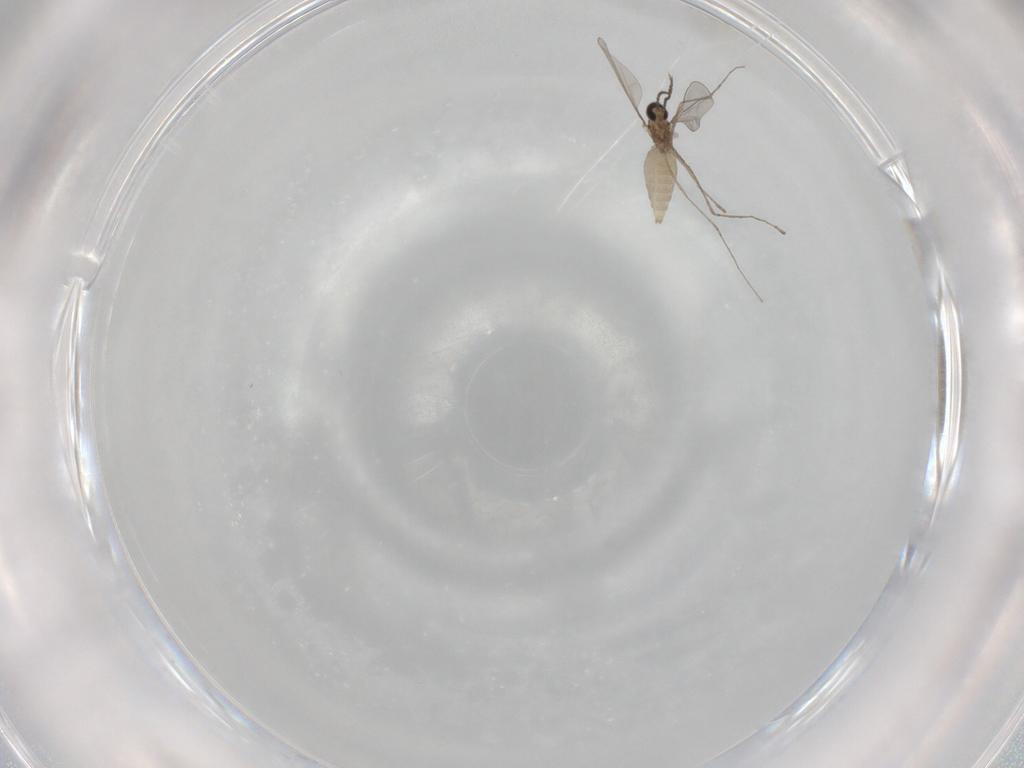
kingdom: Animalia
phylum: Arthropoda
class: Insecta
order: Diptera
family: Cecidomyiidae
